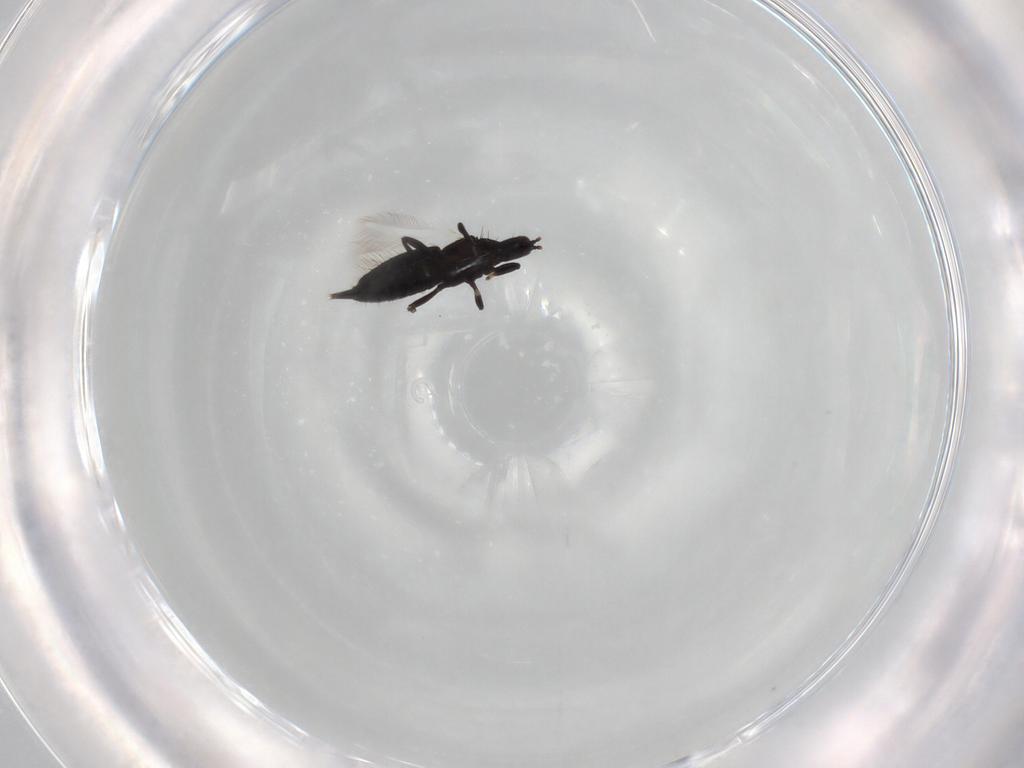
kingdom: Animalia
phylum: Arthropoda
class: Insecta
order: Thysanoptera
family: Phlaeothripidae
